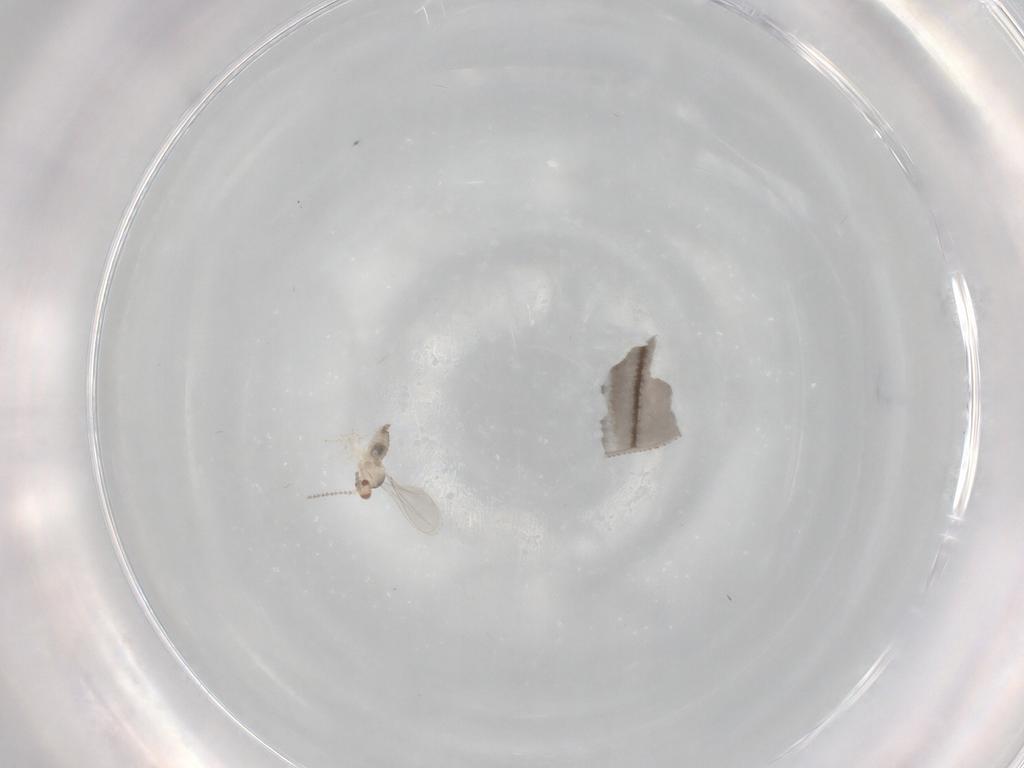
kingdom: Animalia
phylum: Arthropoda
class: Insecta
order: Diptera
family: Cecidomyiidae
